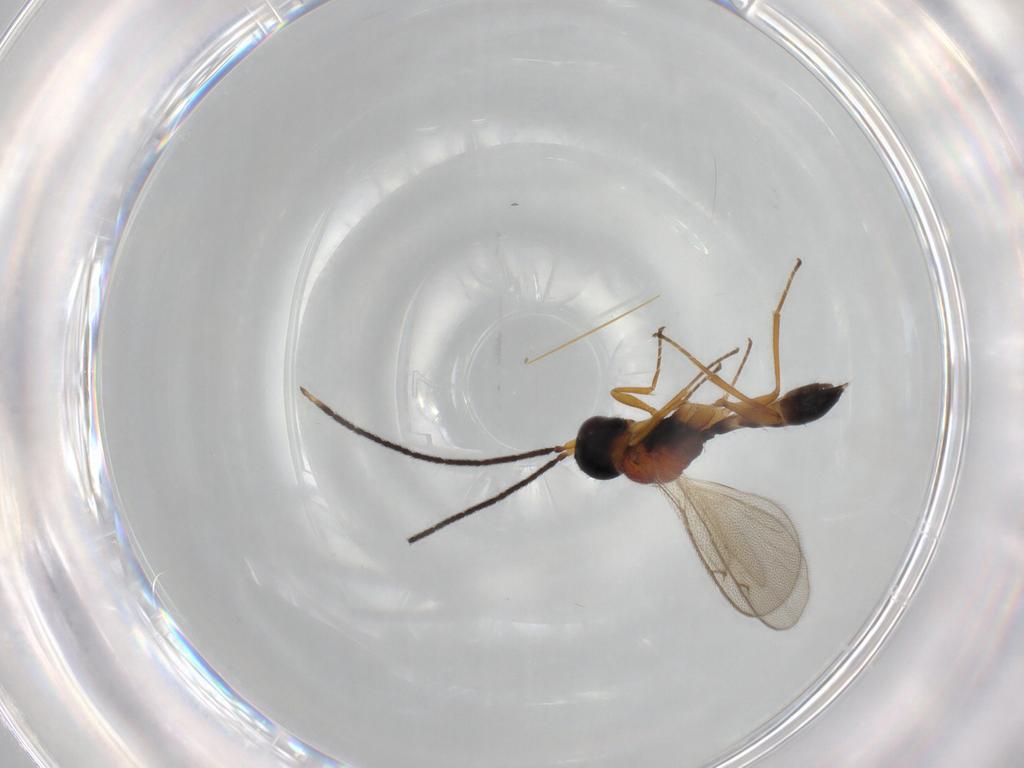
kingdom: Animalia
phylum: Arthropoda
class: Insecta
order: Hymenoptera
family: Pteromalidae
